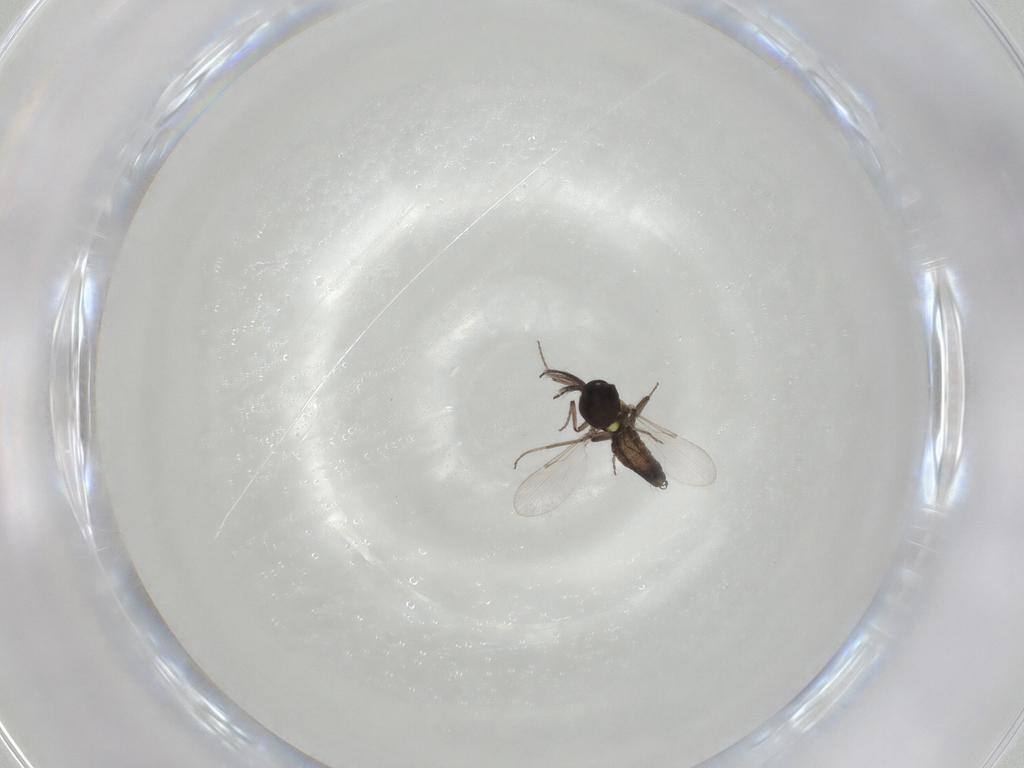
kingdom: Animalia
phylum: Arthropoda
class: Insecta
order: Diptera
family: Ceratopogonidae
